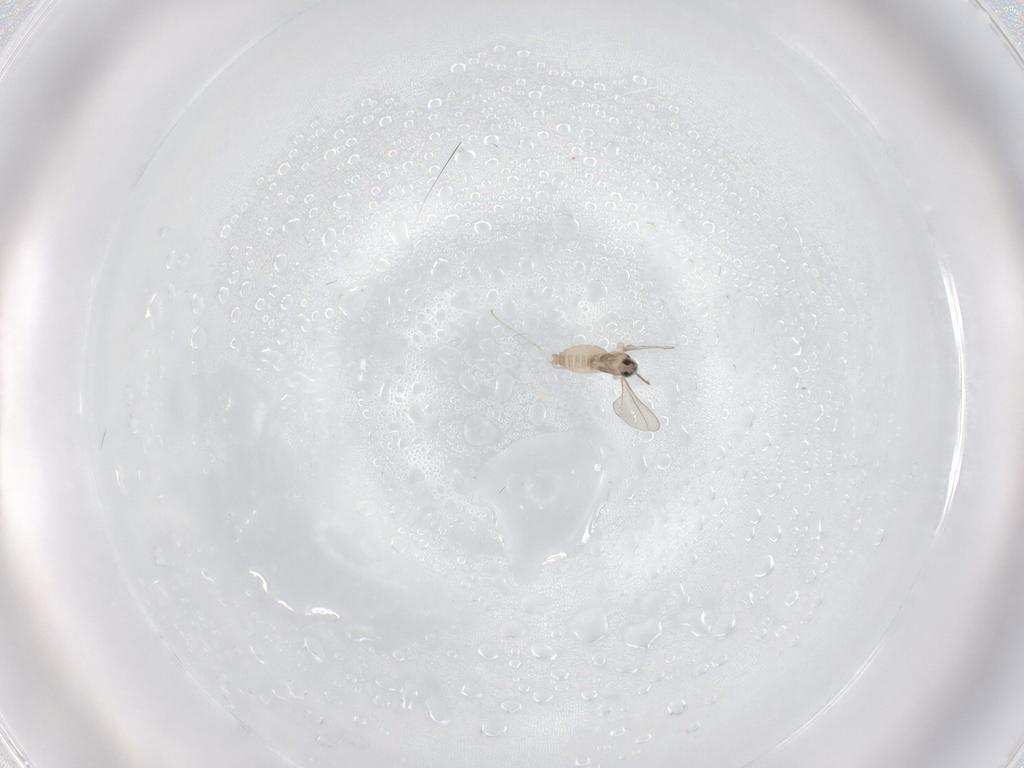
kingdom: Animalia
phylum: Arthropoda
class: Insecta
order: Diptera
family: Cecidomyiidae
